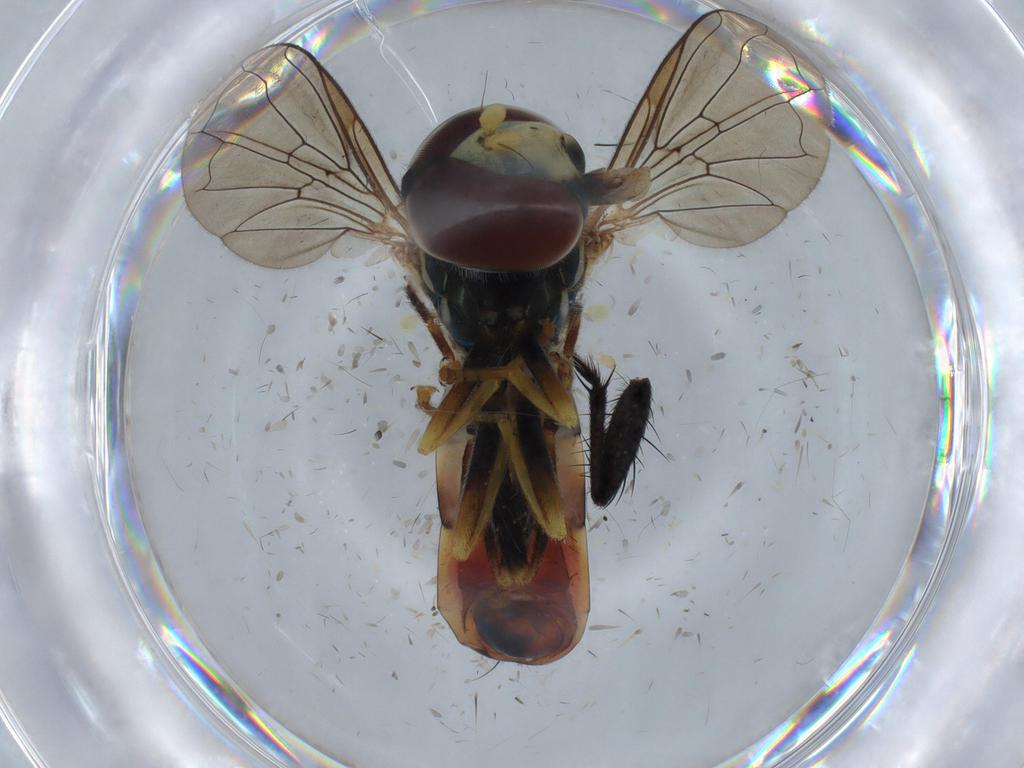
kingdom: Animalia
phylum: Arthropoda
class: Insecta
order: Diptera
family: Syrphidae
